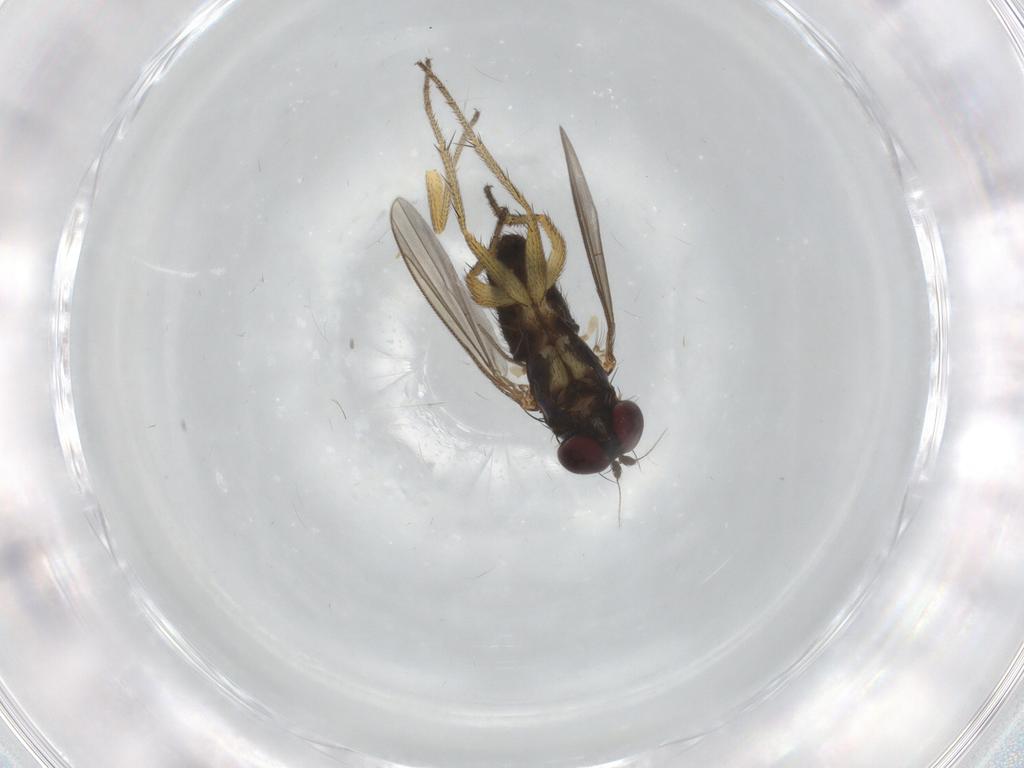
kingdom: Animalia
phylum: Arthropoda
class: Insecta
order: Diptera
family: Dolichopodidae
